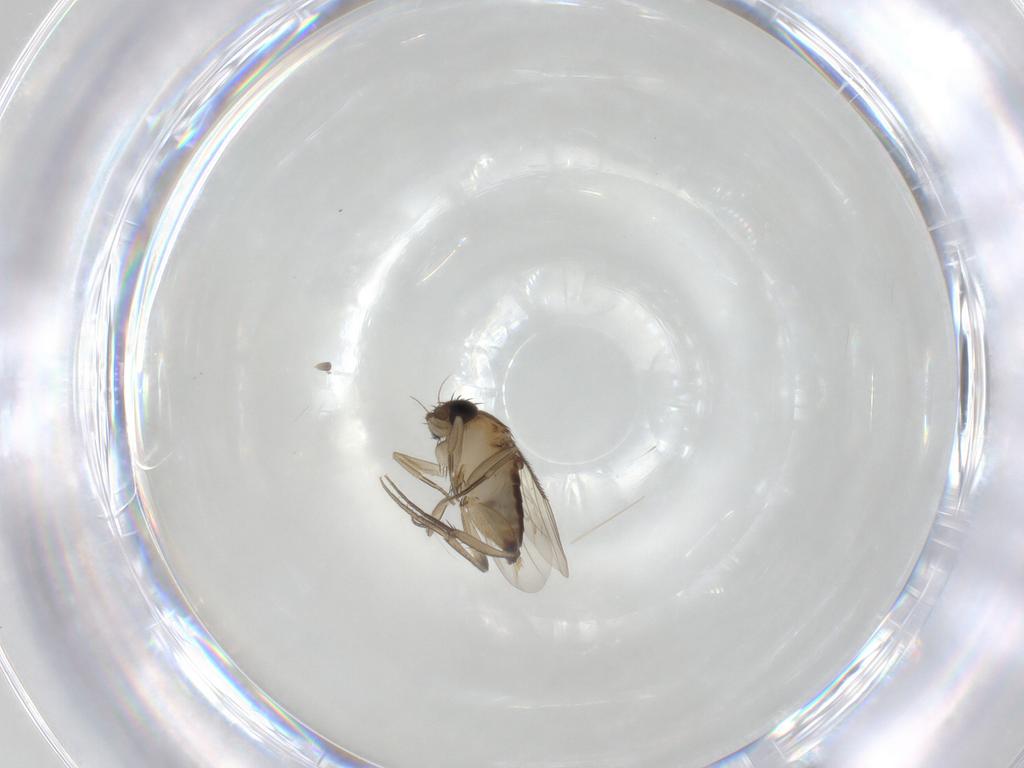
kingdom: Animalia
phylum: Arthropoda
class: Insecta
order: Diptera
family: Phoridae
